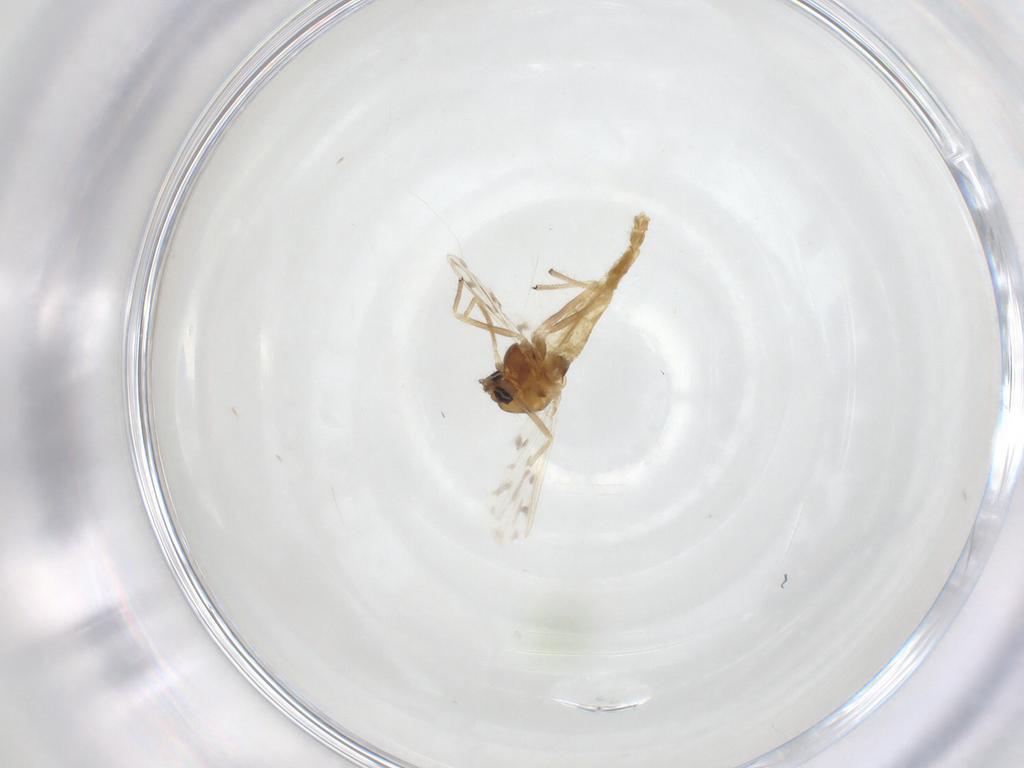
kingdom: Animalia
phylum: Arthropoda
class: Insecta
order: Diptera
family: Chironomidae
